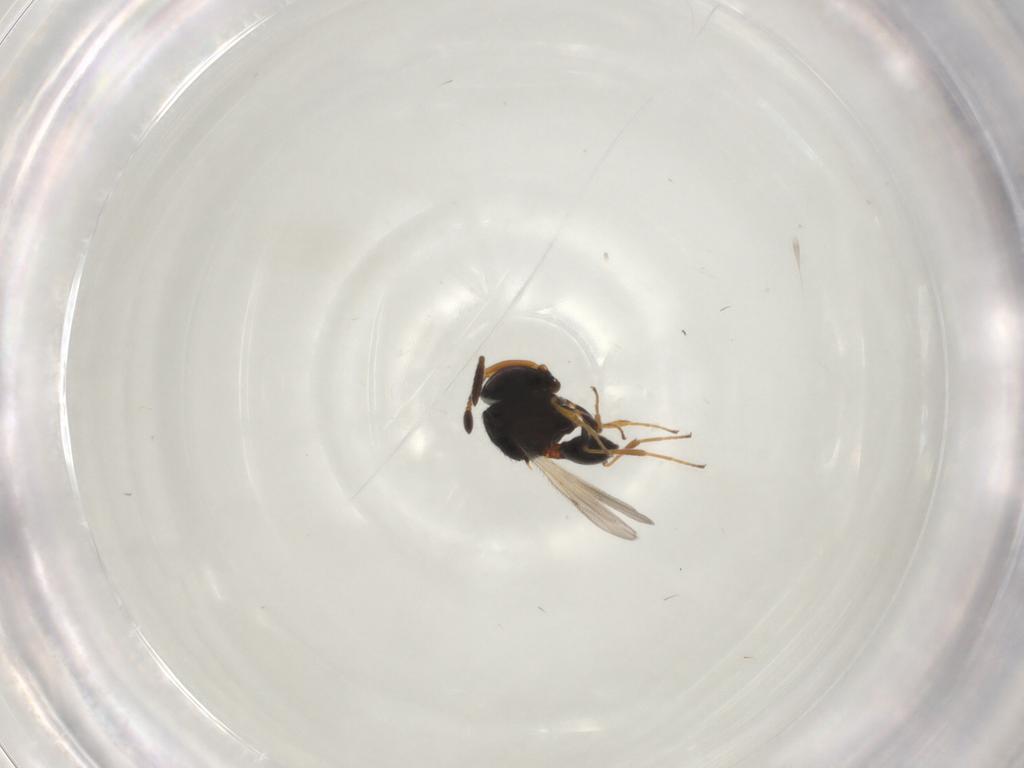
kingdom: Animalia
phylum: Arthropoda
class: Insecta
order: Hymenoptera
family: Scelionidae
